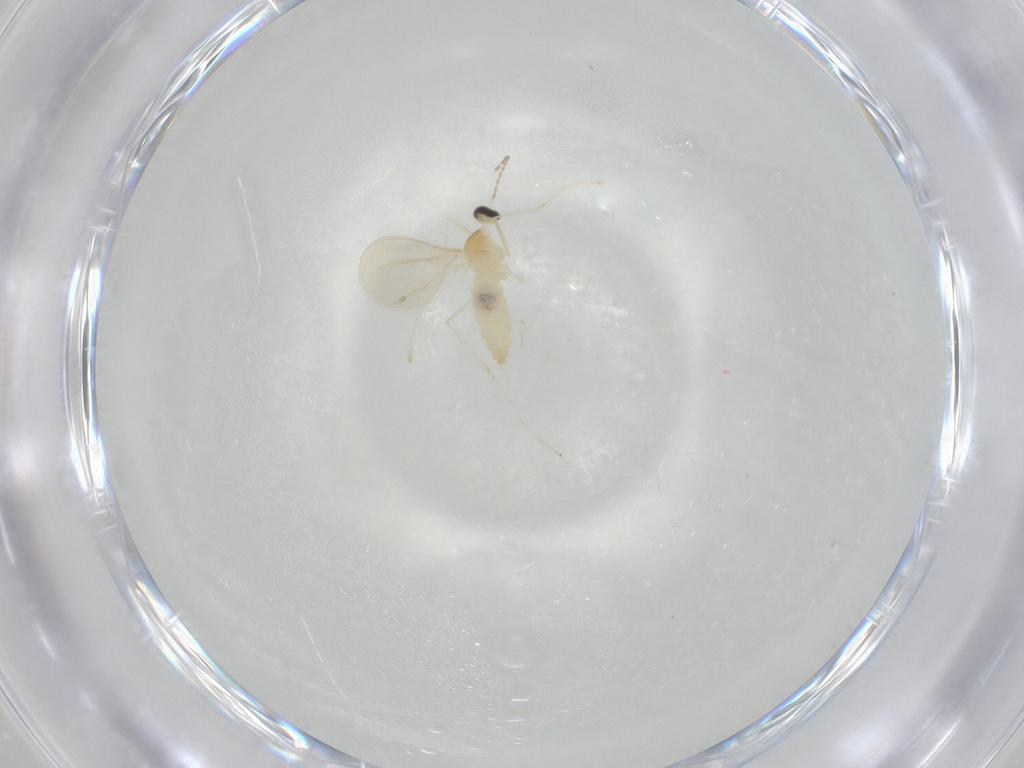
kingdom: Animalia
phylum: Arthropoda
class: Insecta
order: Diptera
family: Cecidomyiidae
